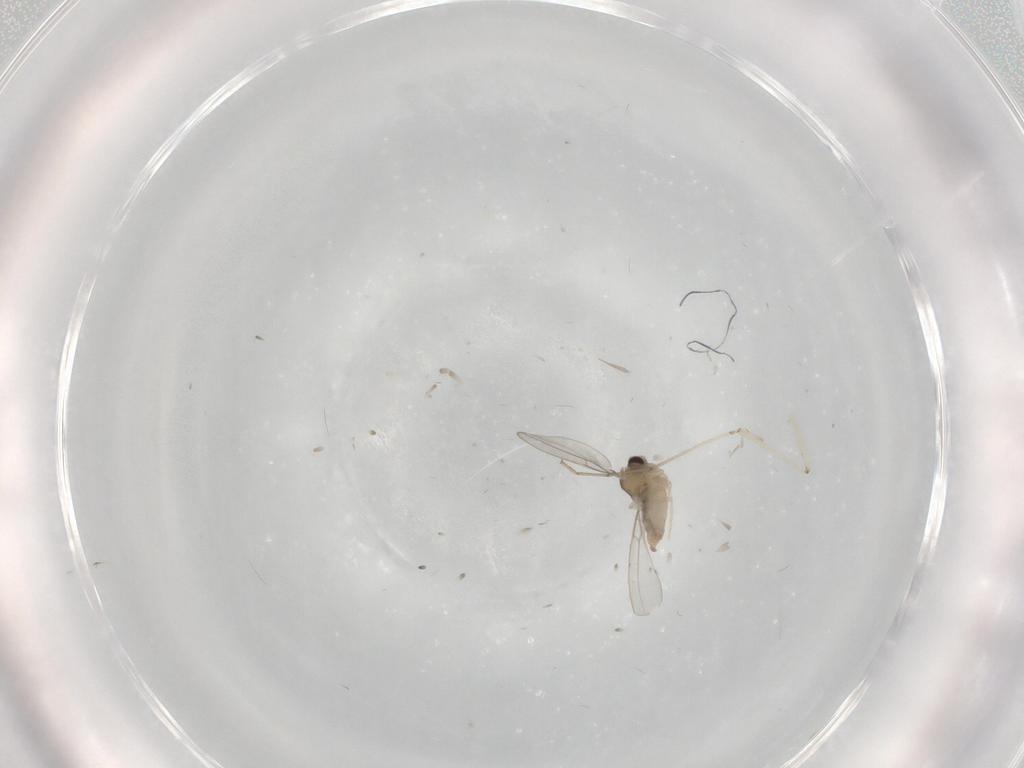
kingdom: Animalia
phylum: Arthropoda
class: Insecta
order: Diptera
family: Cecidomyiidae
